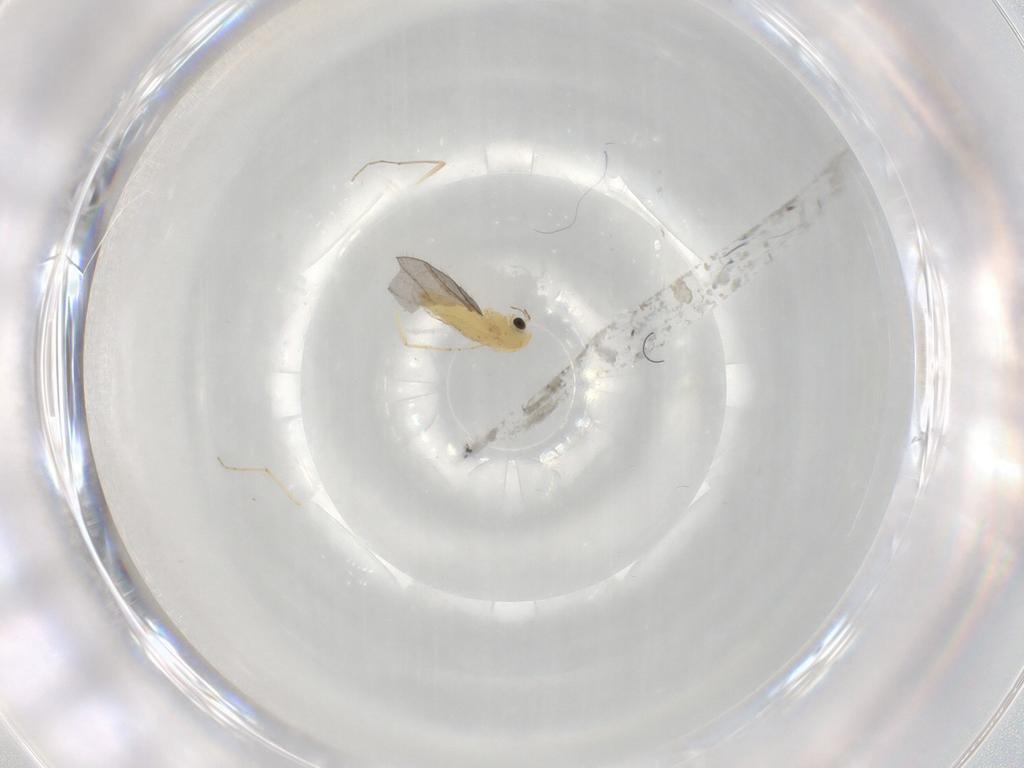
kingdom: Animalia
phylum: Arthropoda
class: Insecta
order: Diptera
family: Chironomidae
